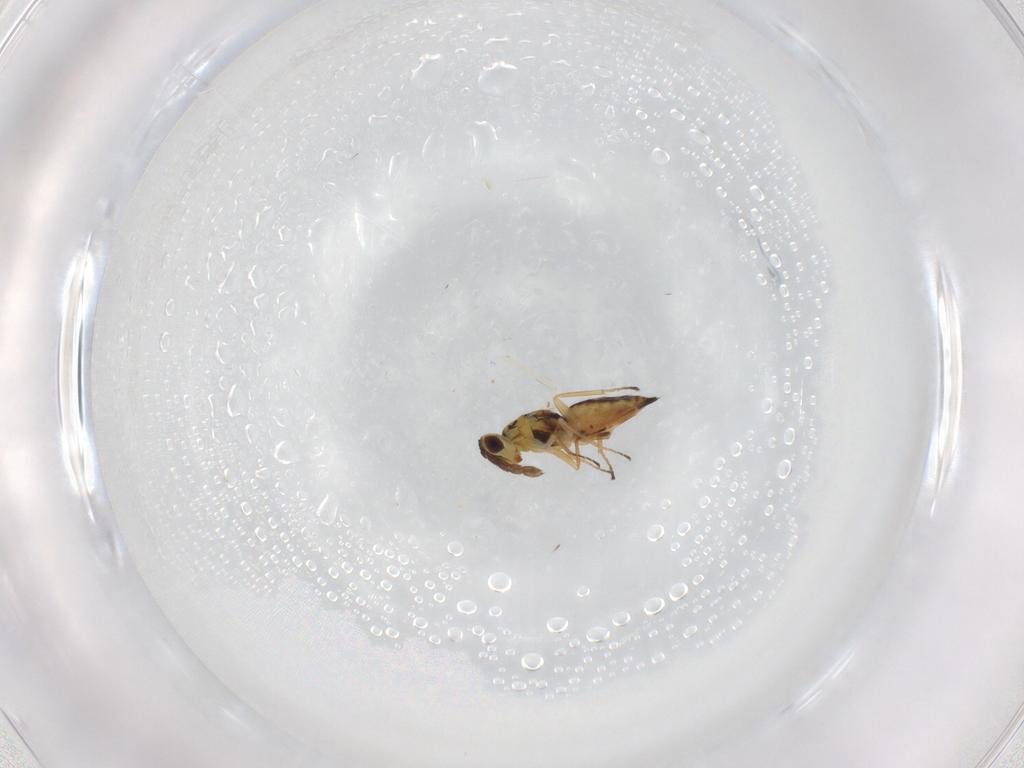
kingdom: Animalia
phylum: Arthropoda
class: Insecta
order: Hymenoptera
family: Eulophidae
